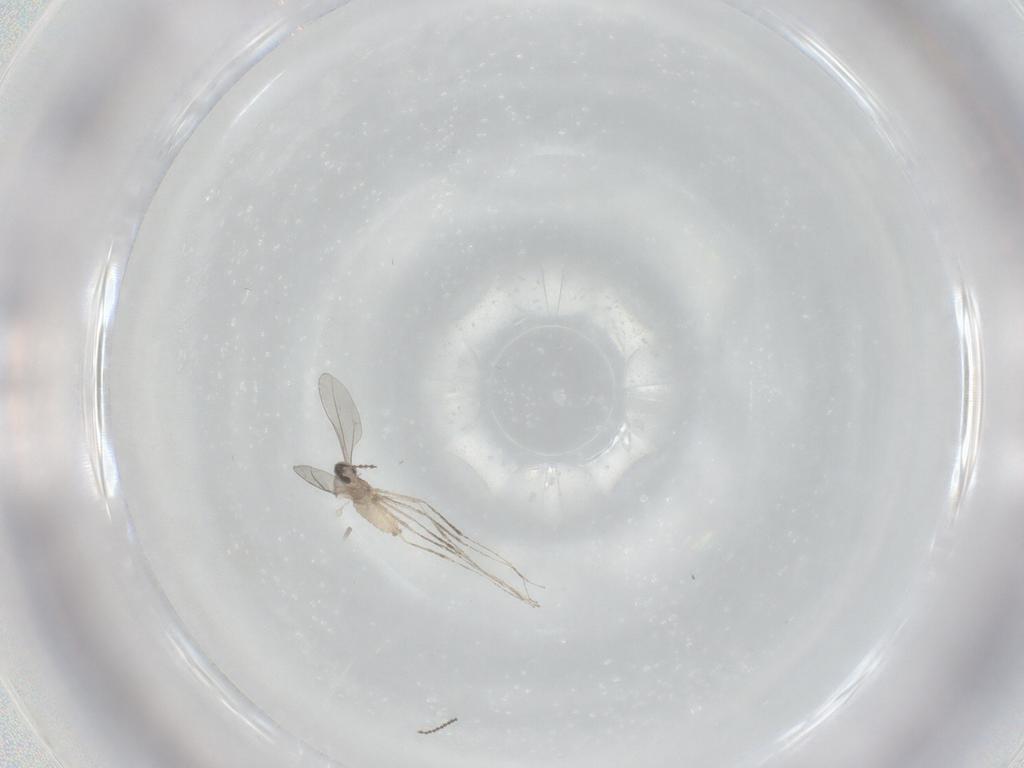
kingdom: Animalia
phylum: Arthropoda
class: Insecta
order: Diptera
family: Cecidomyiidae
